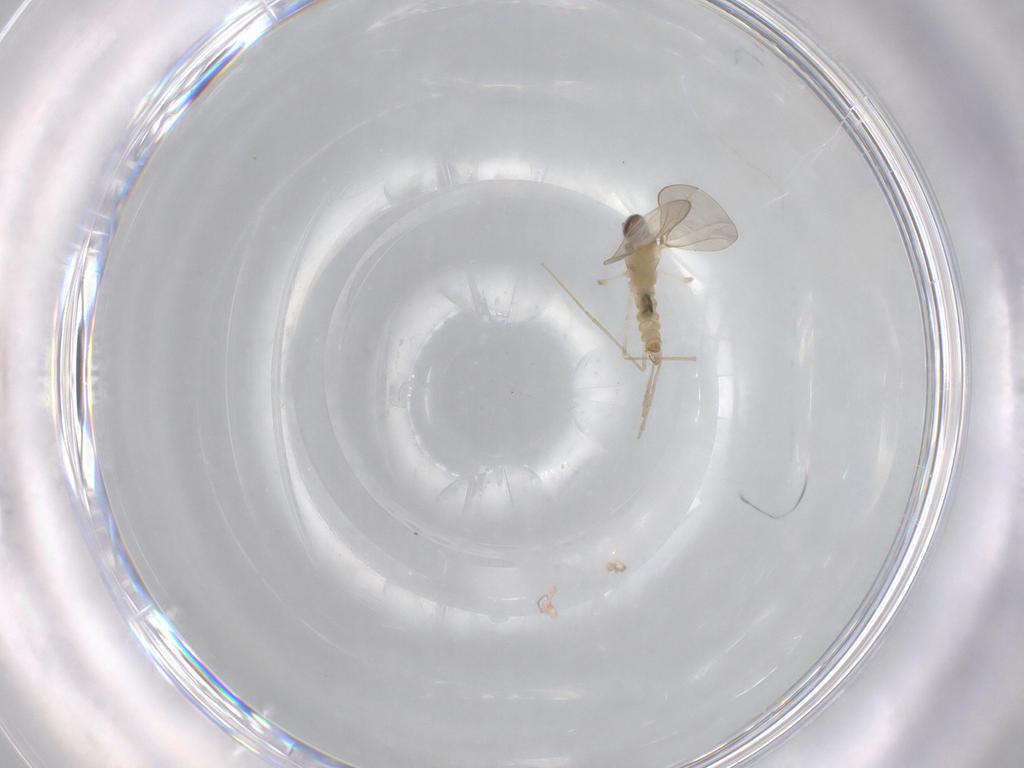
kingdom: Animalia
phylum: Arthropoda
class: Insecta
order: Diptera
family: Cecidomyiidae
